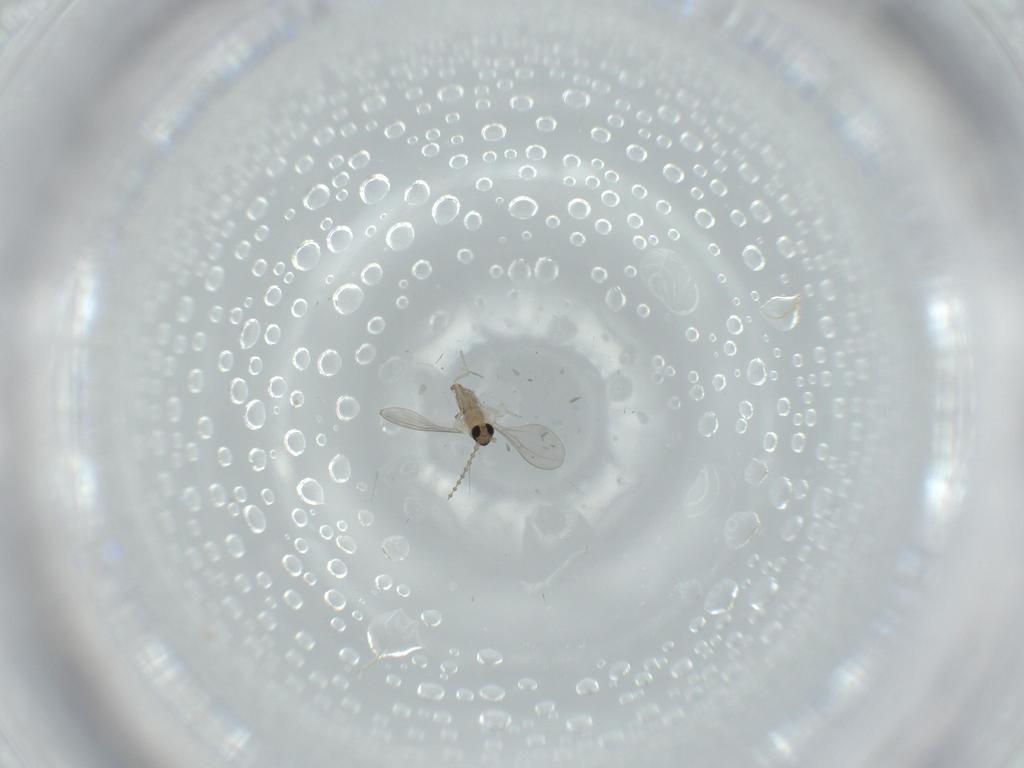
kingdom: Animalia
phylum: Arthropoda
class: Insecta
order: Diptera
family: Cecidomyiidae
